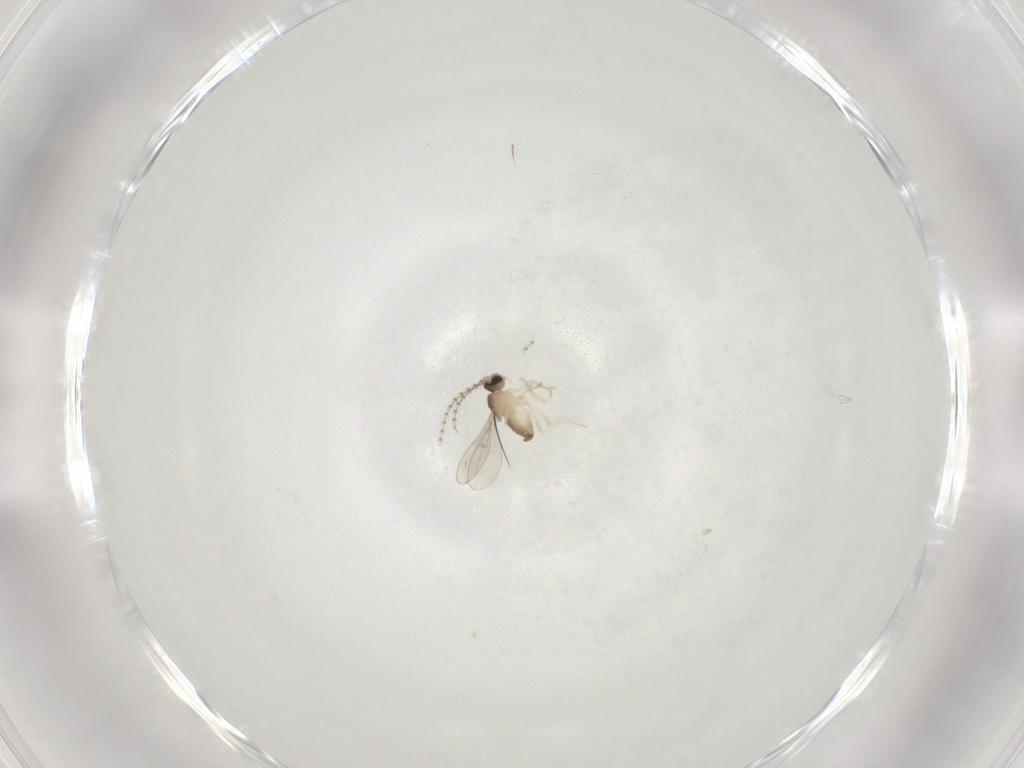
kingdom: Animalia
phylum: Arthropoda
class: Insecta
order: Diptera
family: Cecidomyiidae
